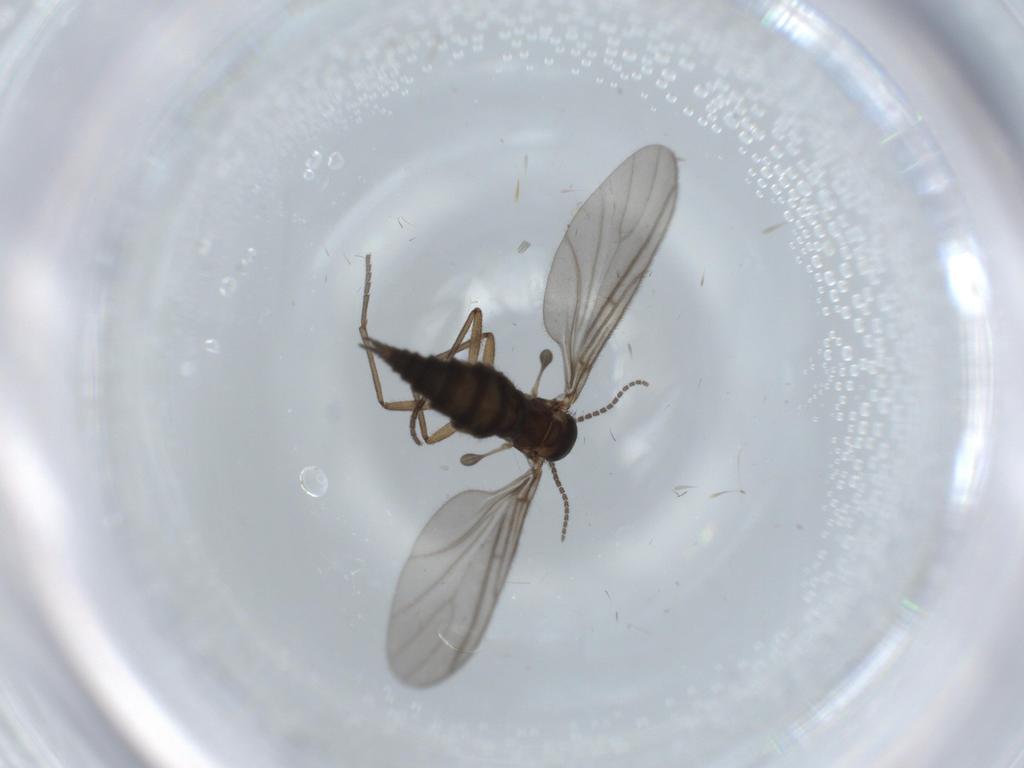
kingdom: Animalia
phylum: Arthropoda
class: Insecta
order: Diptera
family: Sciaridae
